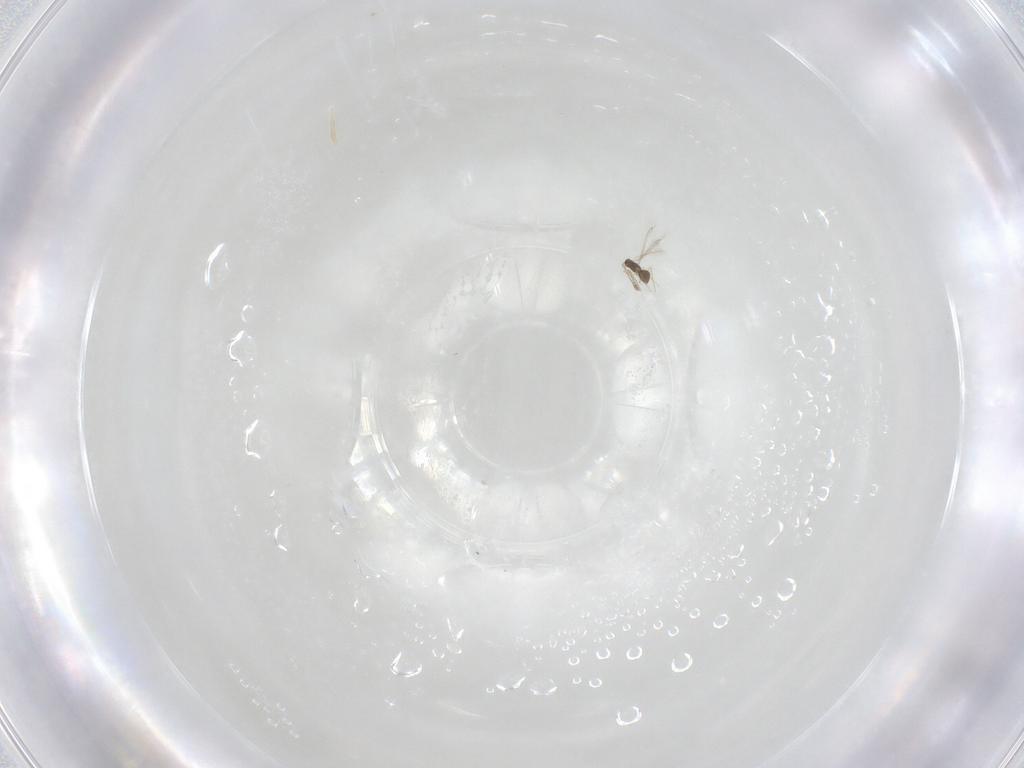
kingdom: Animalia
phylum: Arthropoda
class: Insecta
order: Hymenoptera
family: Mymaridae
